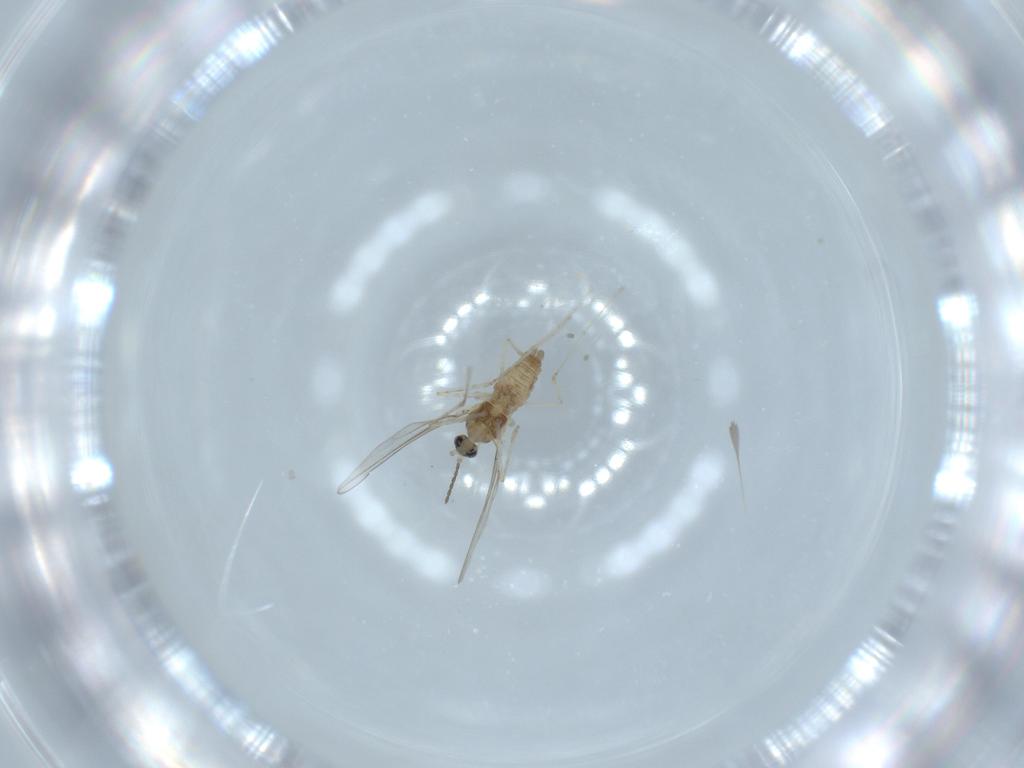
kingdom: Animalia
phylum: Arthropoda
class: Insecta
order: Diptera
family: Cecidomyiidae
